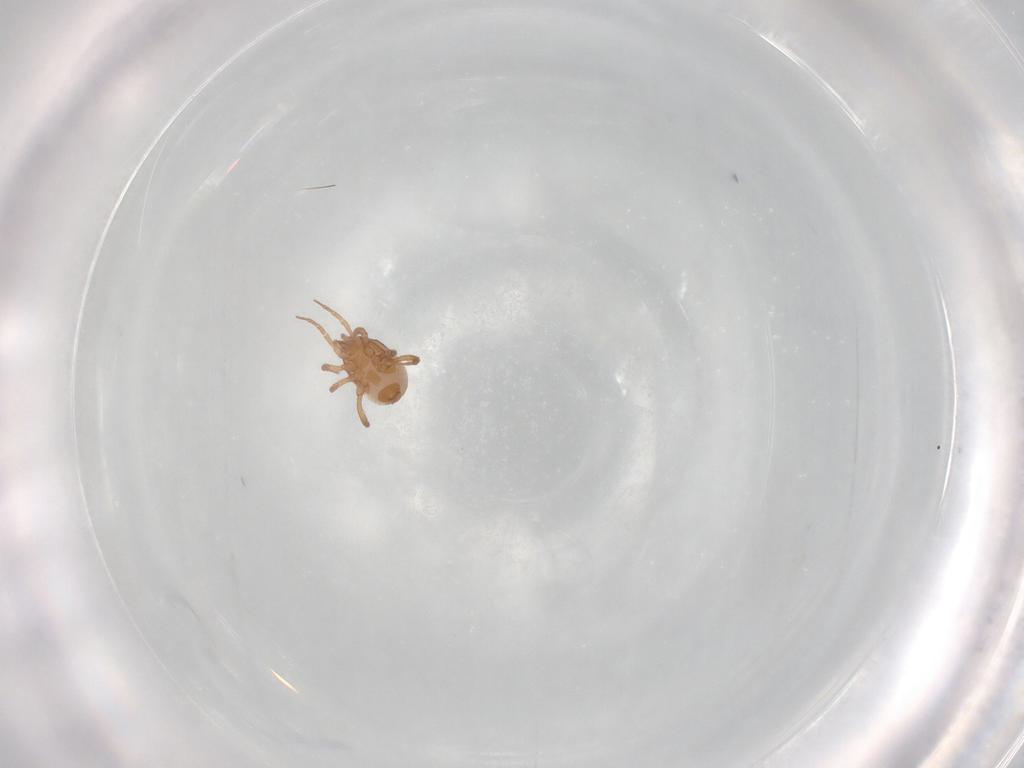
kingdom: Animalia
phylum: Arthropoda
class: Arachnida
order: Mesostigmata
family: Blattisociidae
